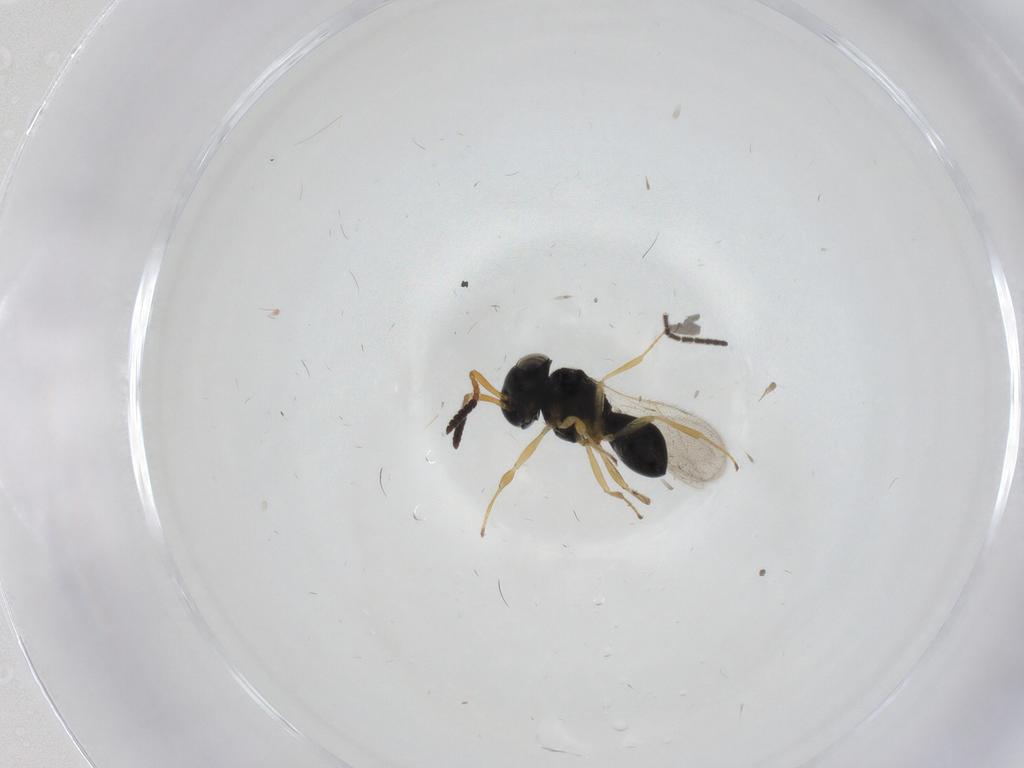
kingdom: Animalia
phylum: Arthropoda
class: Insecta
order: Hymenoptera
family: Scelionidae
